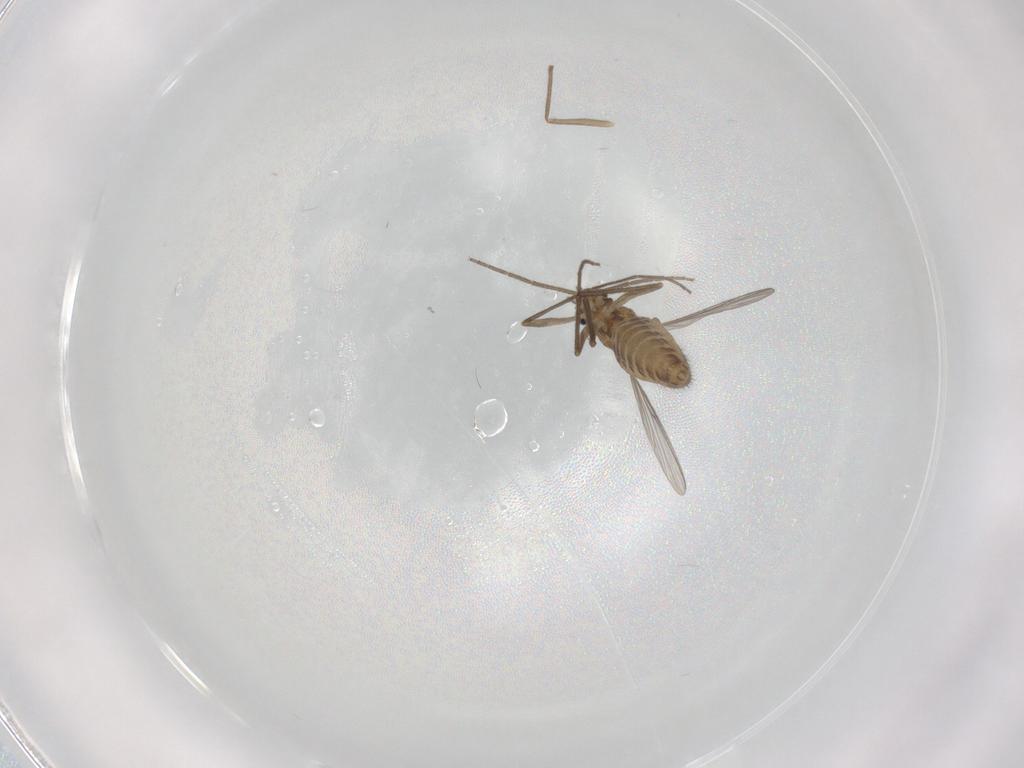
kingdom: Animalia
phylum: Arthropoda
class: Insecta
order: Diptera
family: Chironomidae
